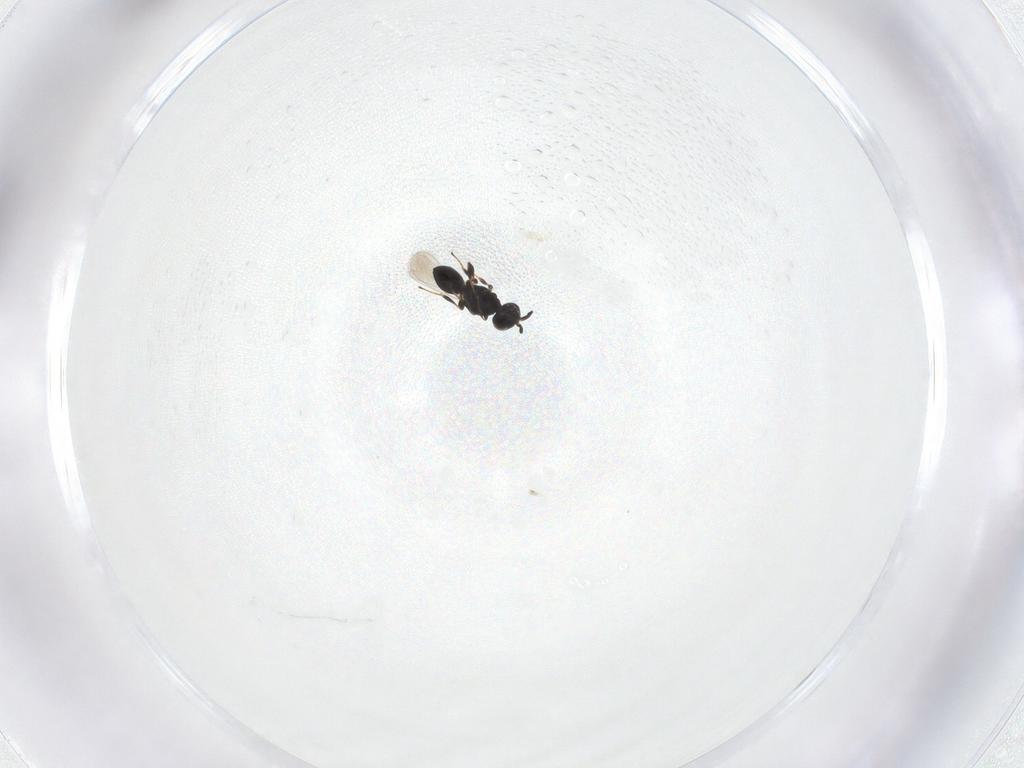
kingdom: Animalia
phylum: Arthropoda
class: Insecta
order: Hymenoptera
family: Platygastridae
